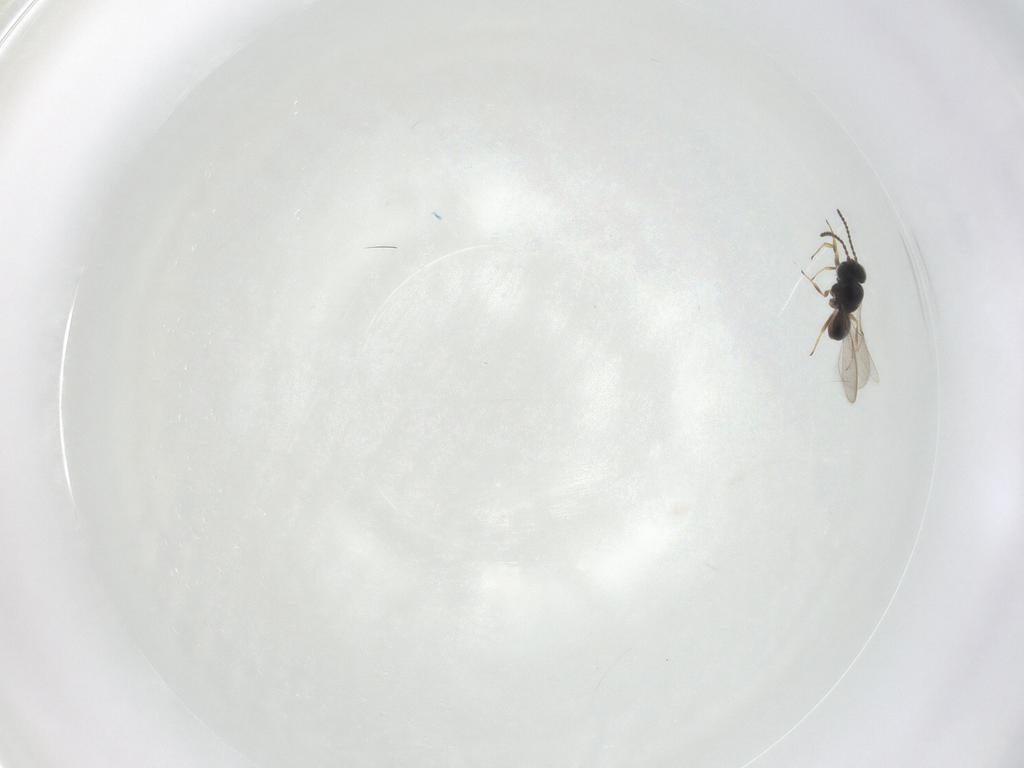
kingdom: Animalia
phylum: Arthropoda
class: Insecta
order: Hymenoptera
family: Scelionidae
